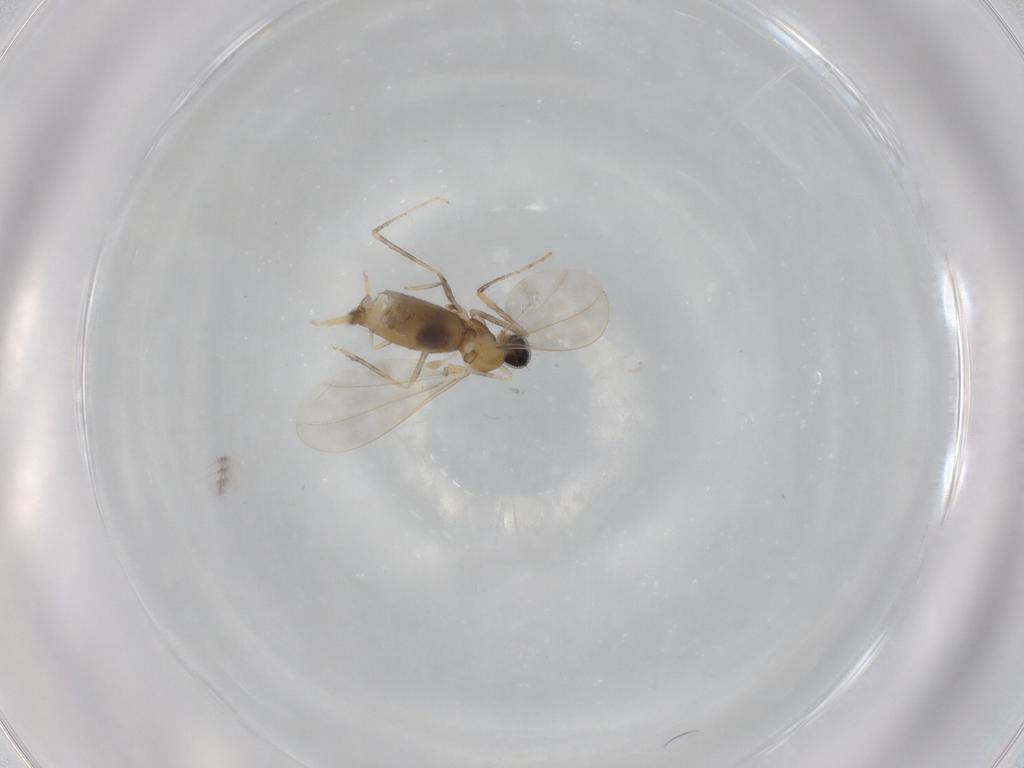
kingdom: Animalia
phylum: Arthropoda
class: Insecta
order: Diptera
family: Cecidomyiidae
